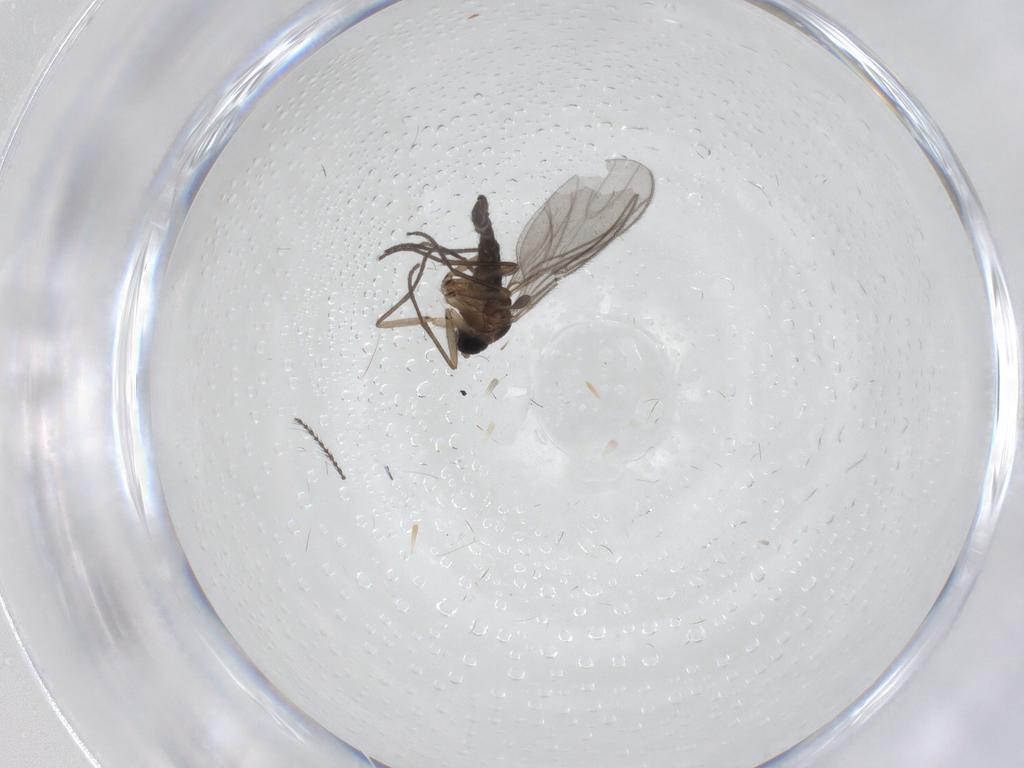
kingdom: Animalia
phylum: Arthropoda
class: Insecta
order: Diptera
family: Sciaridae
